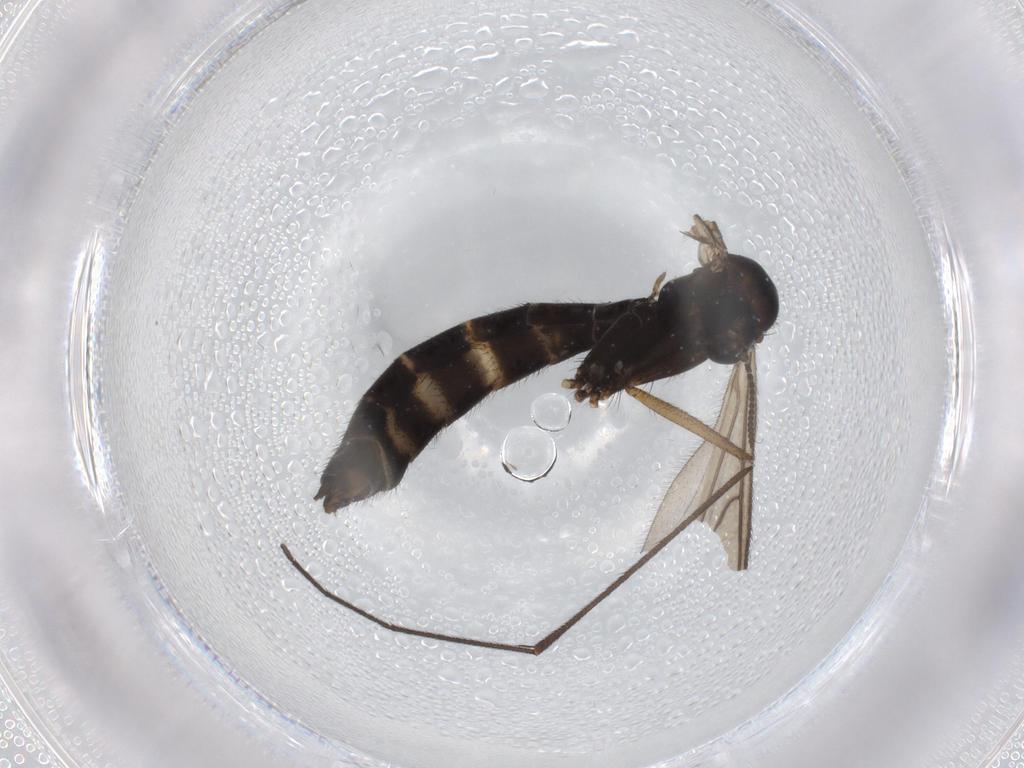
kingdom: Animalia
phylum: Arthropoda
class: Insecta
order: Diptera
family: Ditomyiidae
